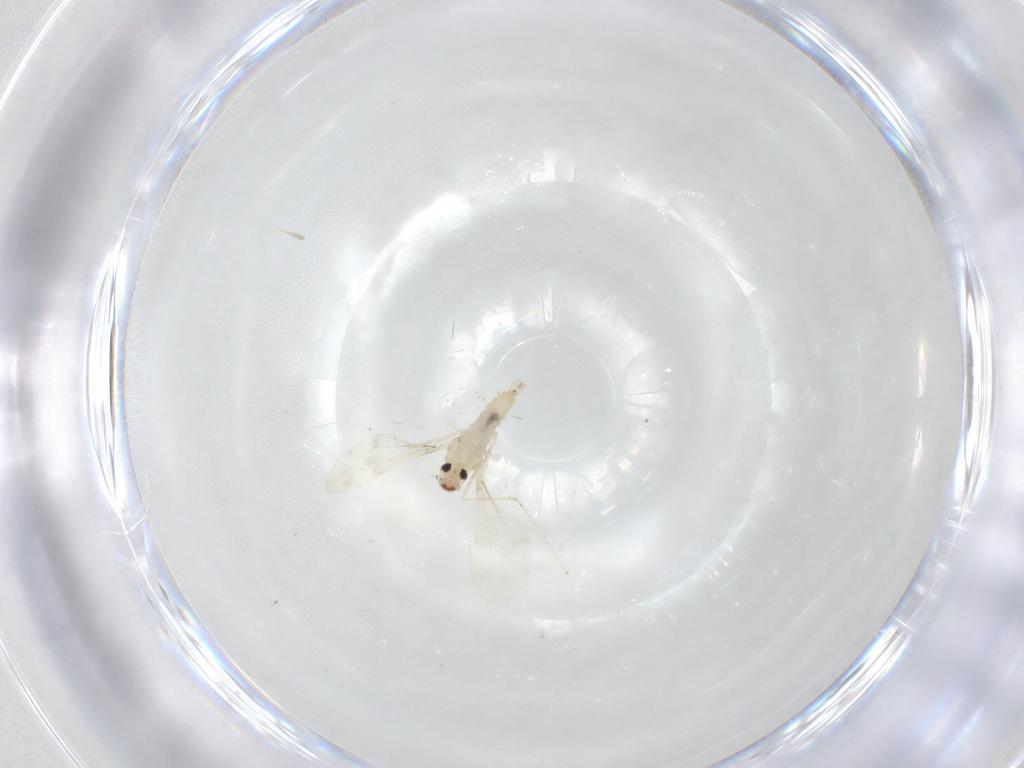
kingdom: Animalia
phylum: Arthropoda
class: Insecta
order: Diptera
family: Cecidomyiidae
